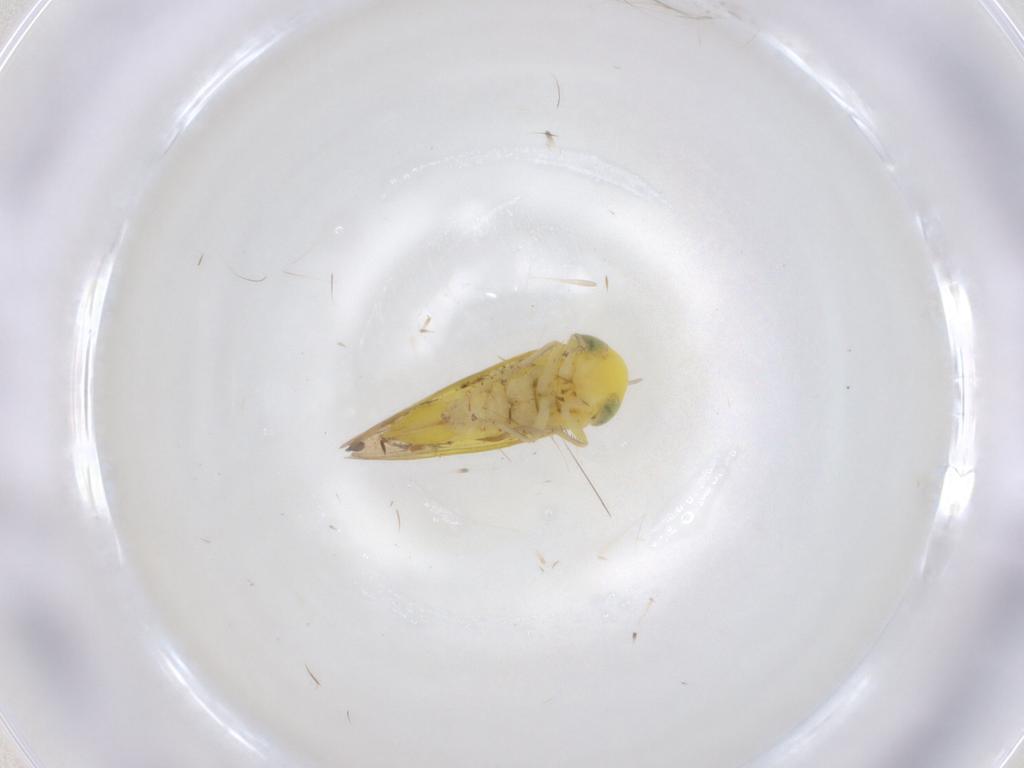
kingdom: Animalia
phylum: Arthropoda
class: Insecta
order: Hemiptera
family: Cicadellidae
